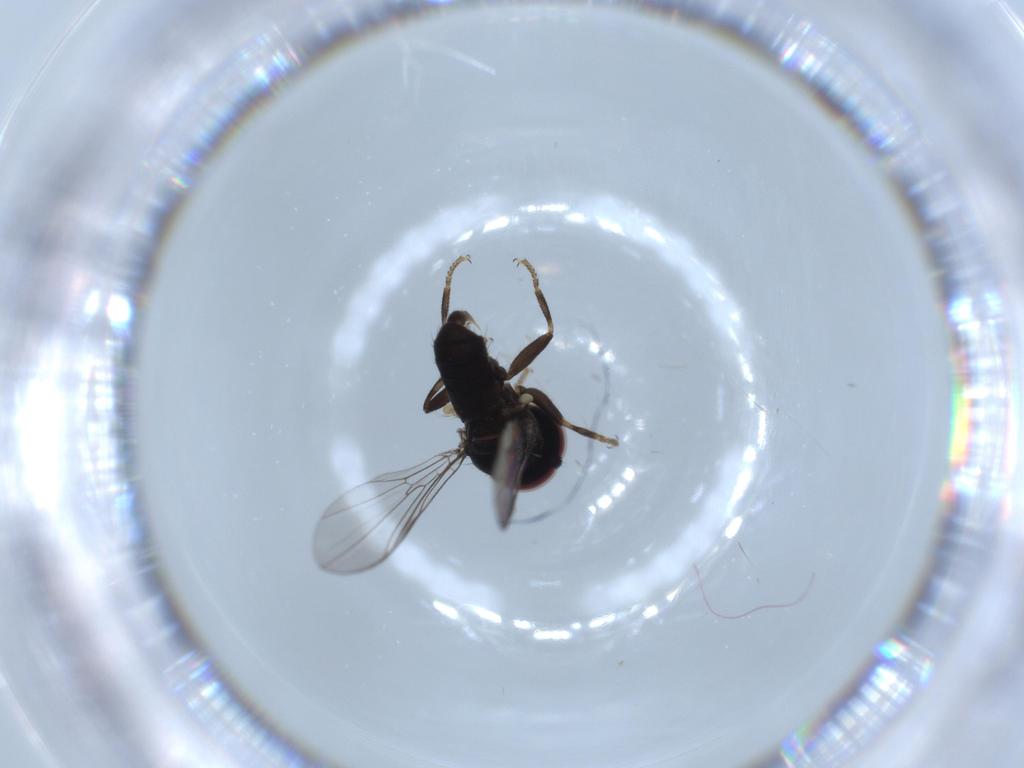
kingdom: Animalia
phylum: Arthropoda
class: Insecta
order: Diptera
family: Pipunculidae
